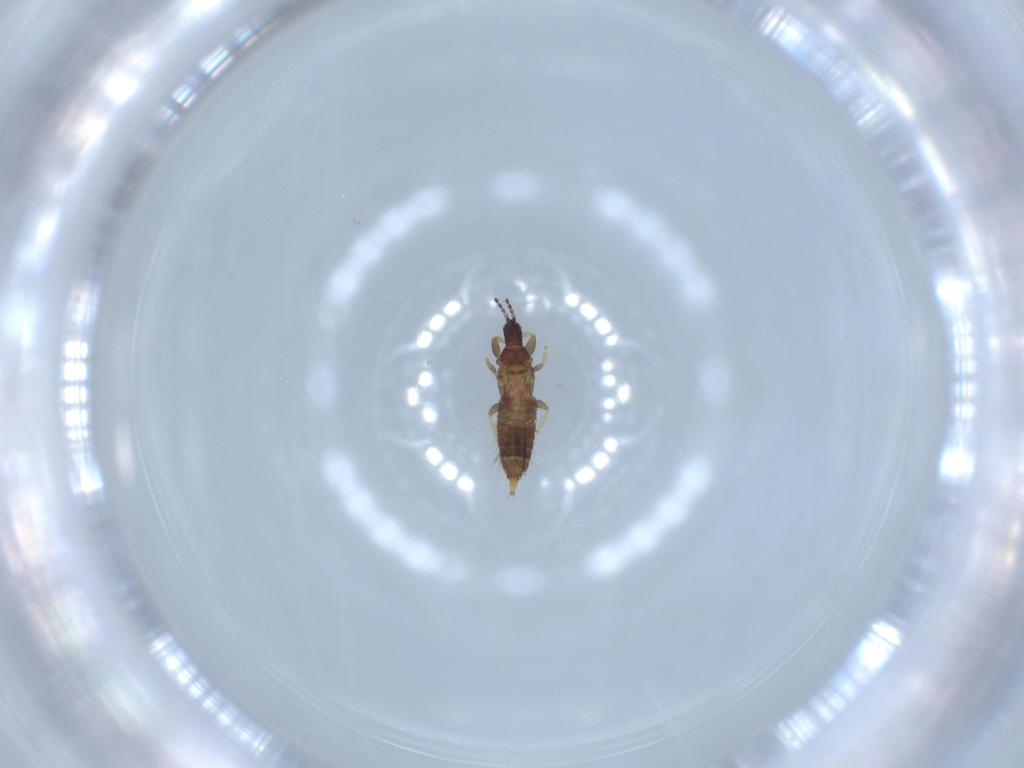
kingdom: Animalia
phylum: Arthropoda
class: Insecta
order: Thysanoptera
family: Phlaeothripidae
